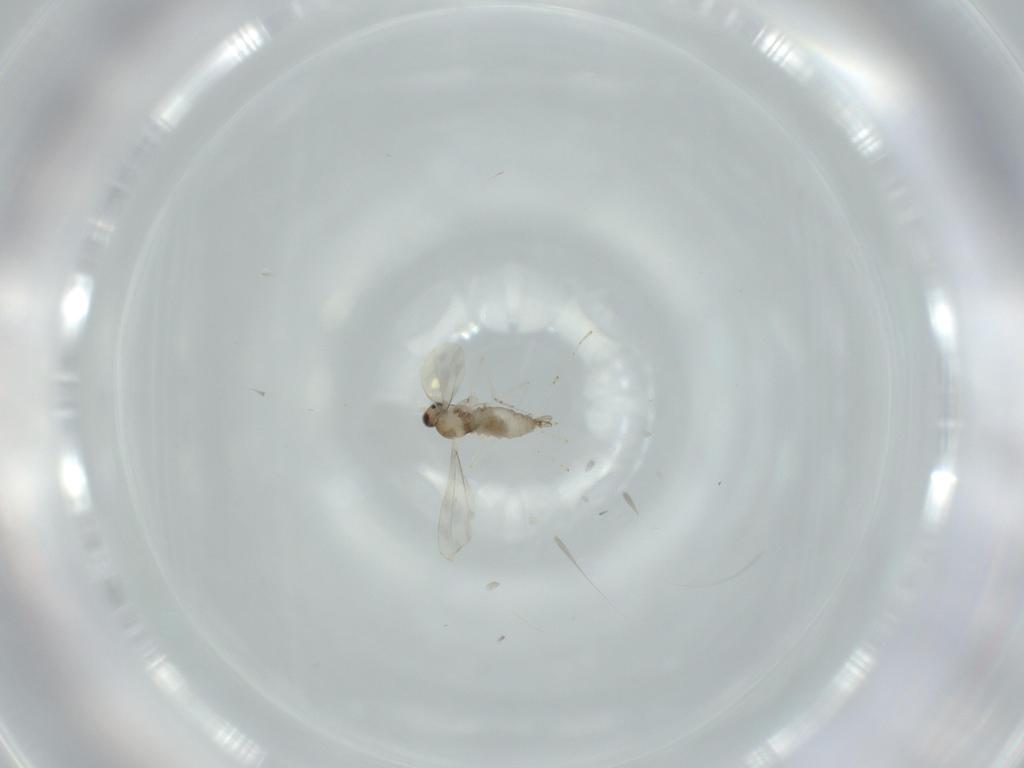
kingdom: Animalia
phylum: Arthropoda
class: Insecta
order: Diptera
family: Cecidomyiidae
